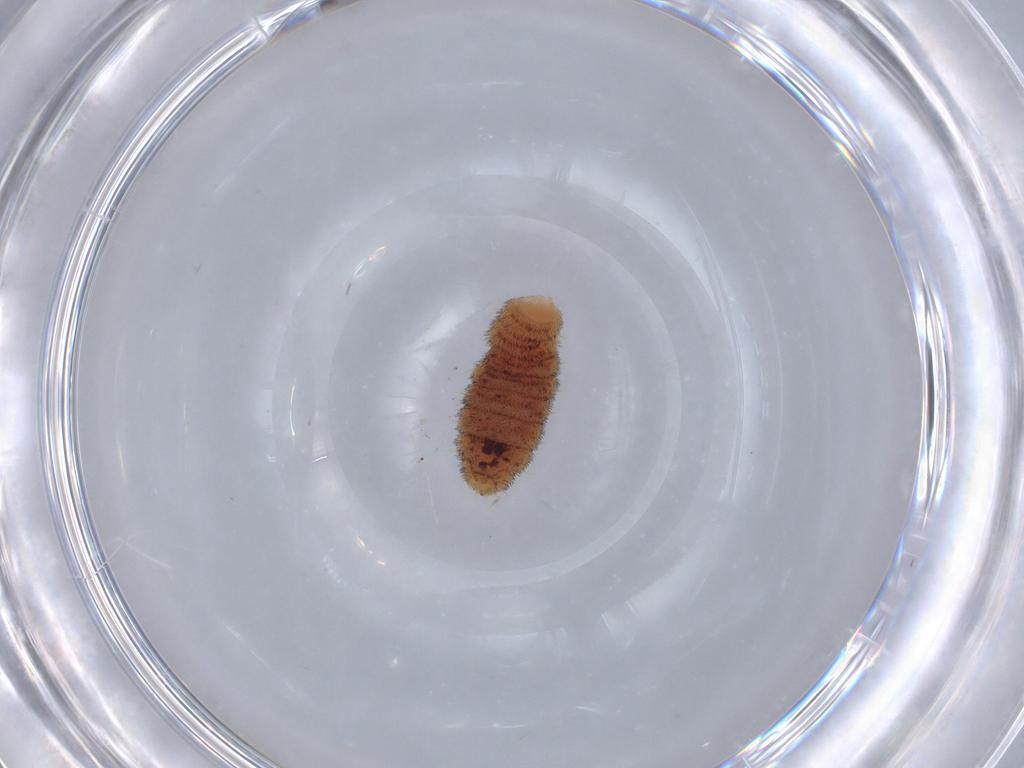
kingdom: Animalia
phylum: Arthropoda
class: Insecta
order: Diptera
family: Phoridae
